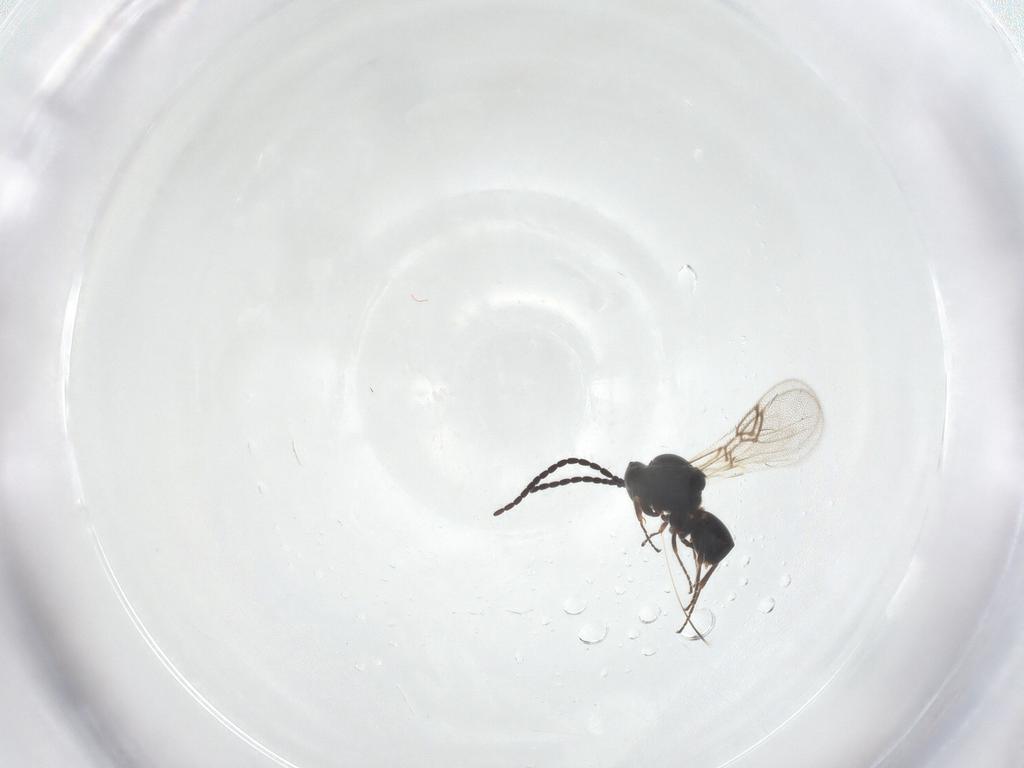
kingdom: Animalia
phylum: Arthropoda
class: Insecta
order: Hymenoptera
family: Figitidae
